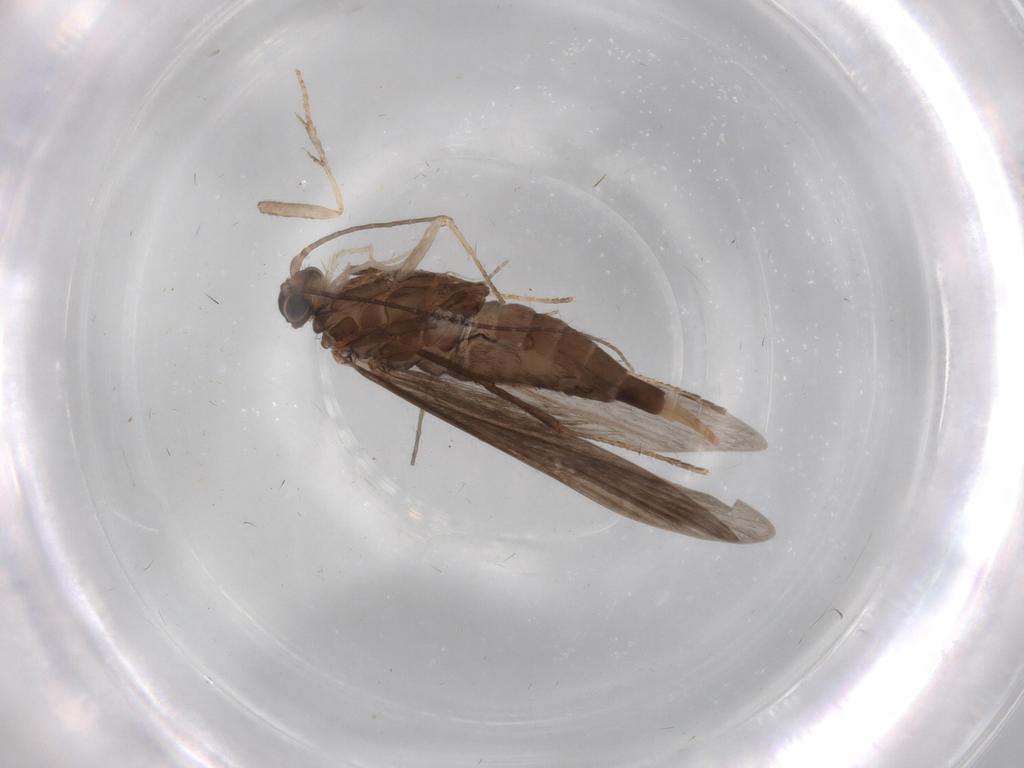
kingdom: Animalia
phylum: Arthropoda
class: Insecta
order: Trichoptera
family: Xiphocentronidae
